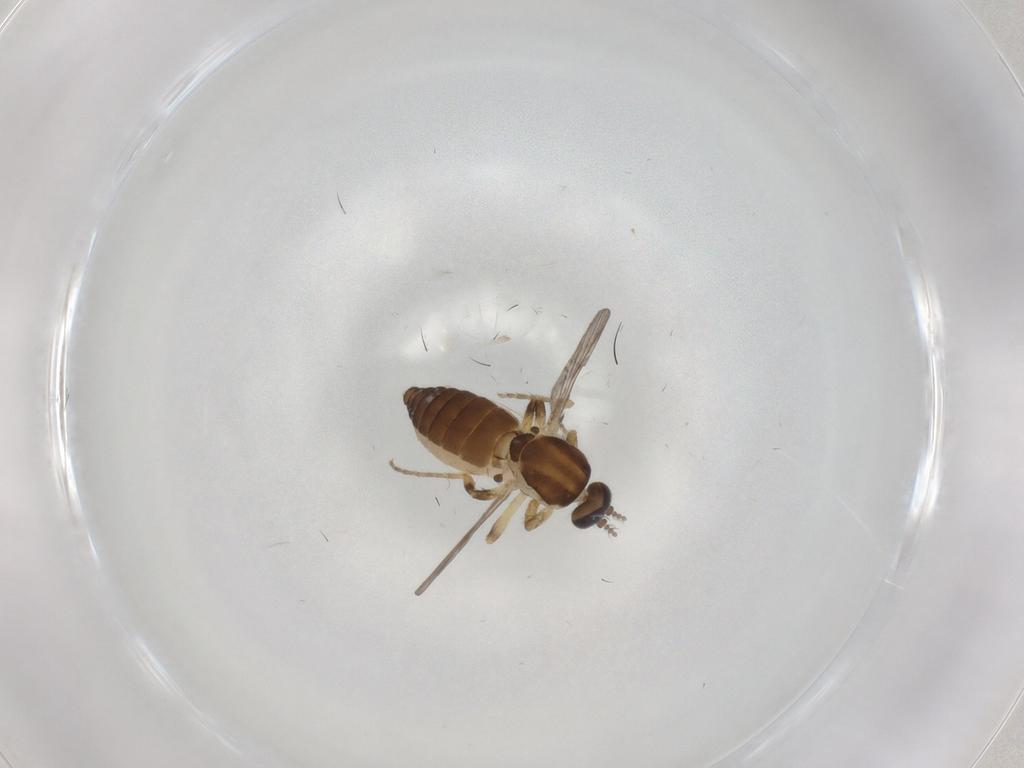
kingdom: Animalia
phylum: Arthropoda
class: Insecta
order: Diptera
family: Ceratopogonidae
